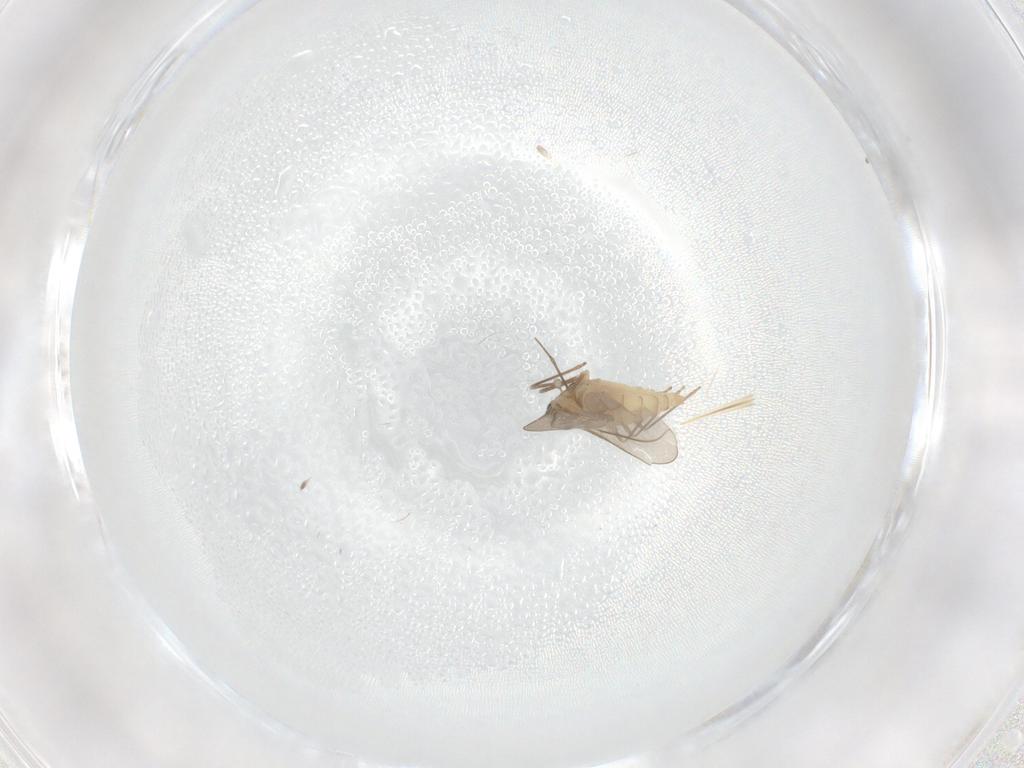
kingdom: Animalia
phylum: Arthropoda
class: Insecta
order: Diptera
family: Cecidomyiidae
